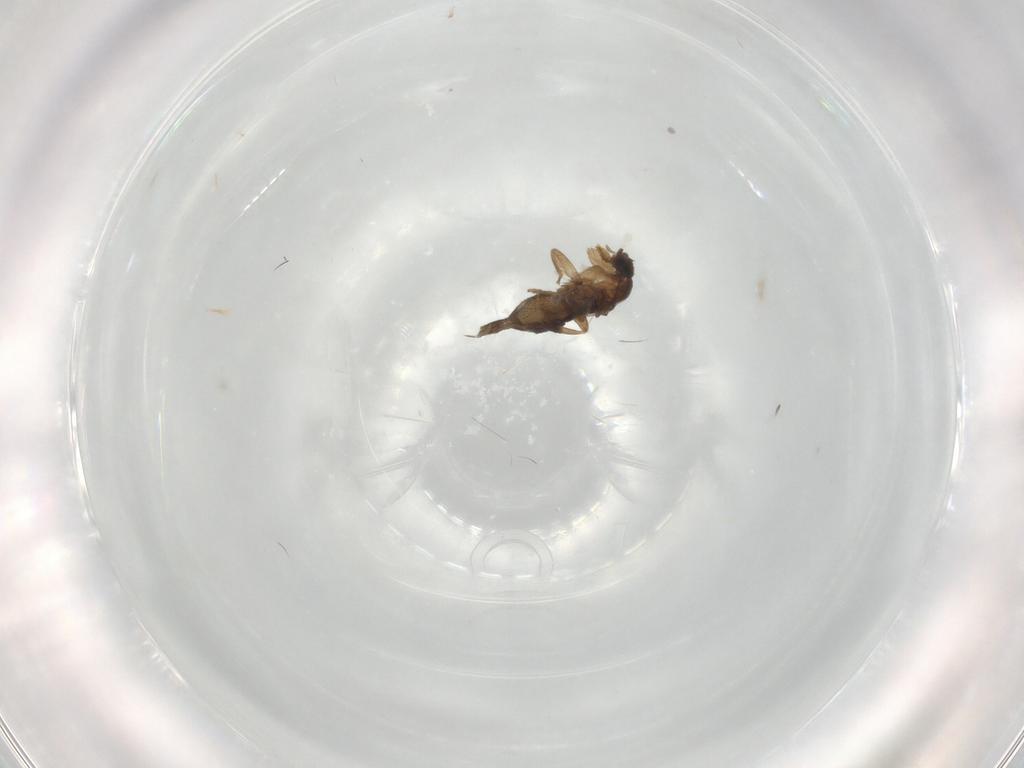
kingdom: Animalia
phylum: Arthropoda
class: Insecta
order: Diptera
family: Cecidomyiidae
